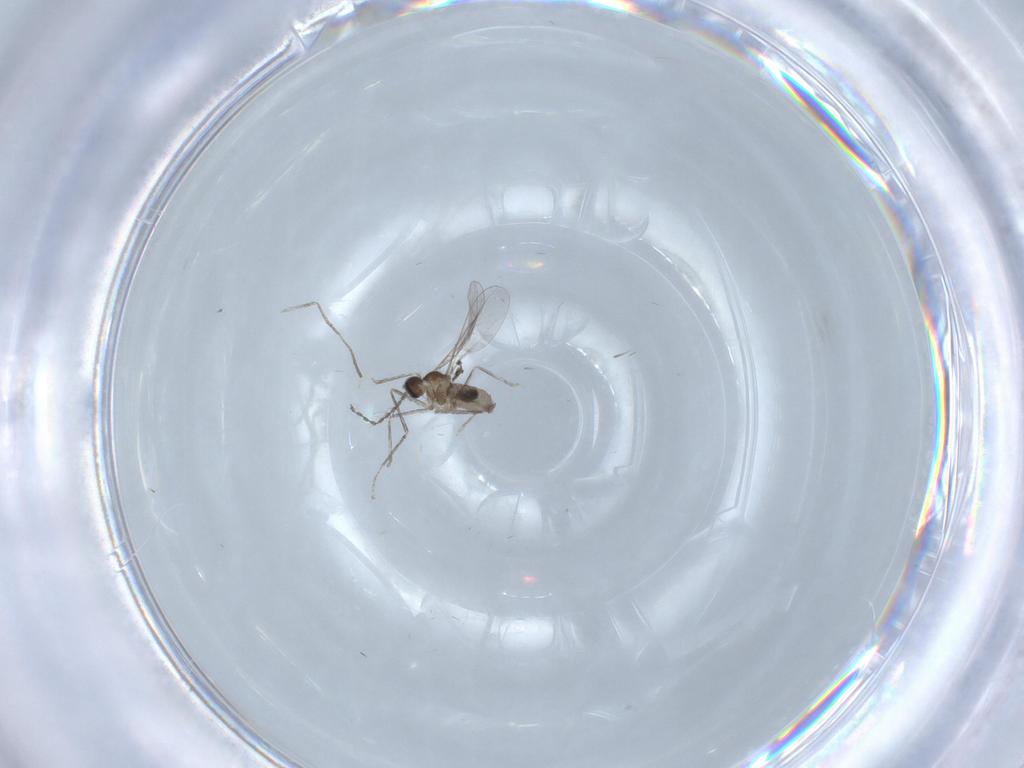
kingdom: Animalia
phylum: Arthropoda
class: Insecta
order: Diptera
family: Cecidomyiidae
